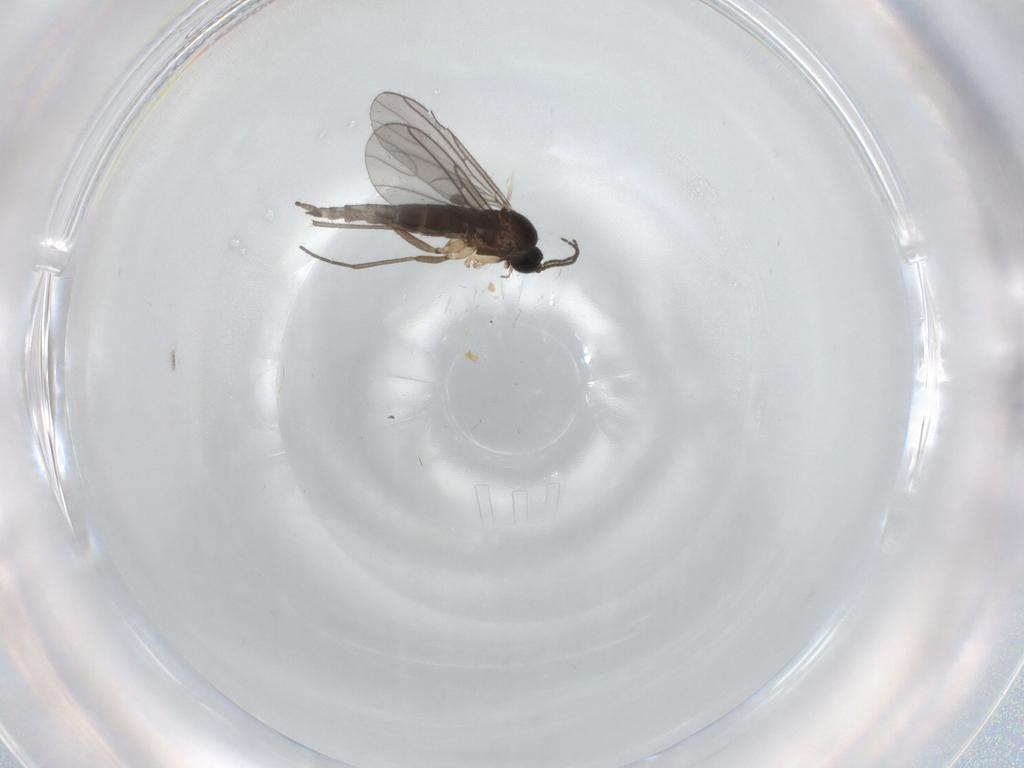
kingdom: Animalia
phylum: Arthropoda
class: Insecta
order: Diptera
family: Sciaridae
